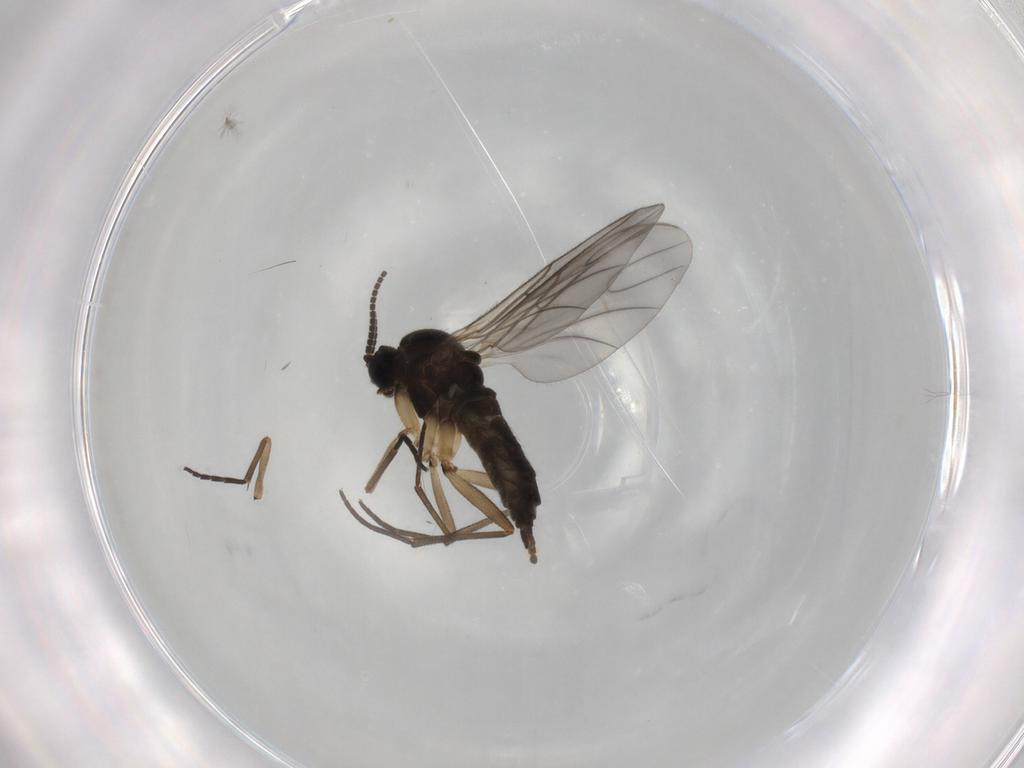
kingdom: Animalia
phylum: Arthropoda
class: Insecta
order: Diptera
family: Sciaridae
